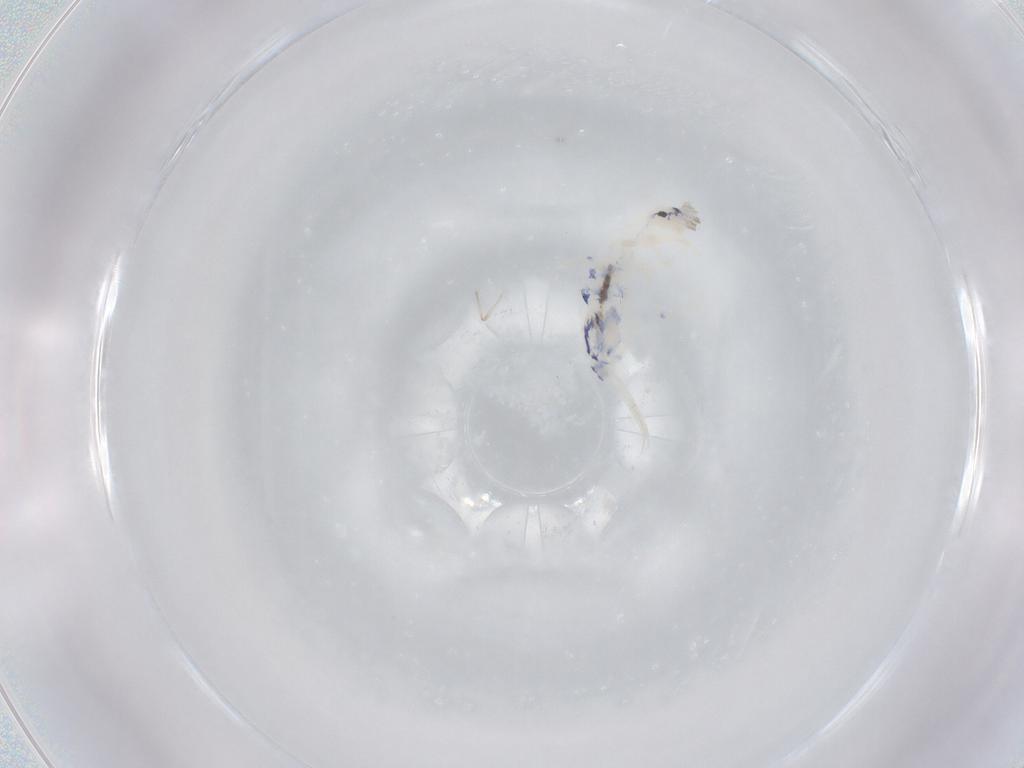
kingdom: Animalia
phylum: Arthropoda
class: Collembola
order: Entomobryomorpha
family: Entomobryidae
